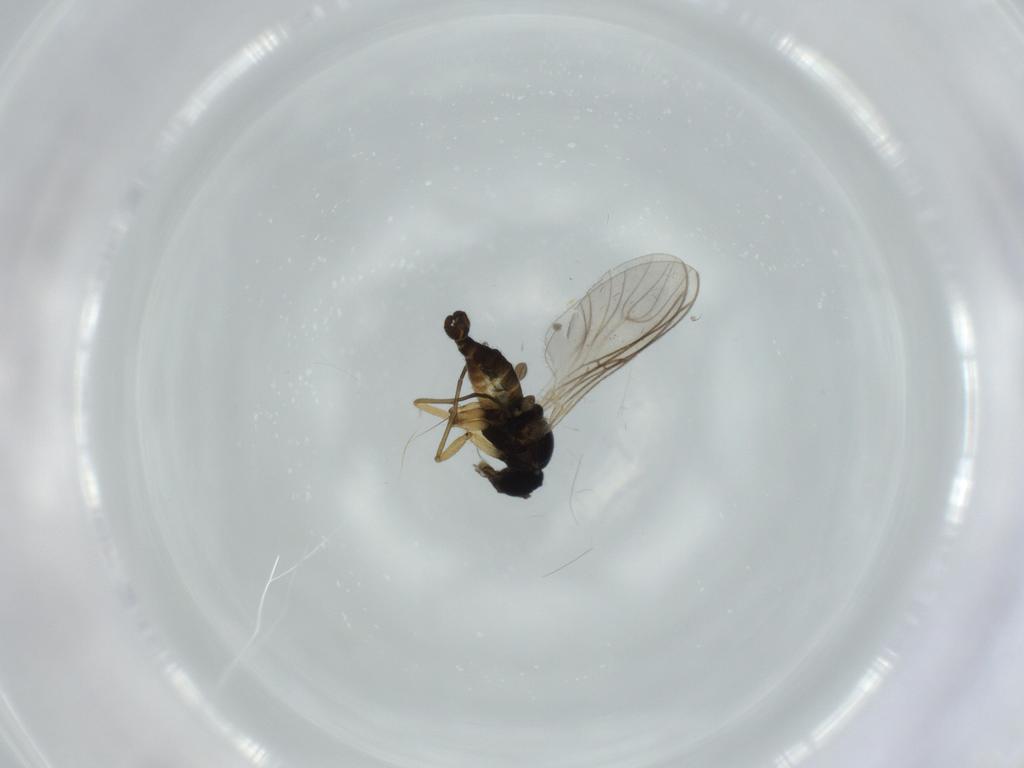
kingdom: Animalia
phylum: Arthropoda
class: Insecta
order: Diptera
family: Sciaridae
